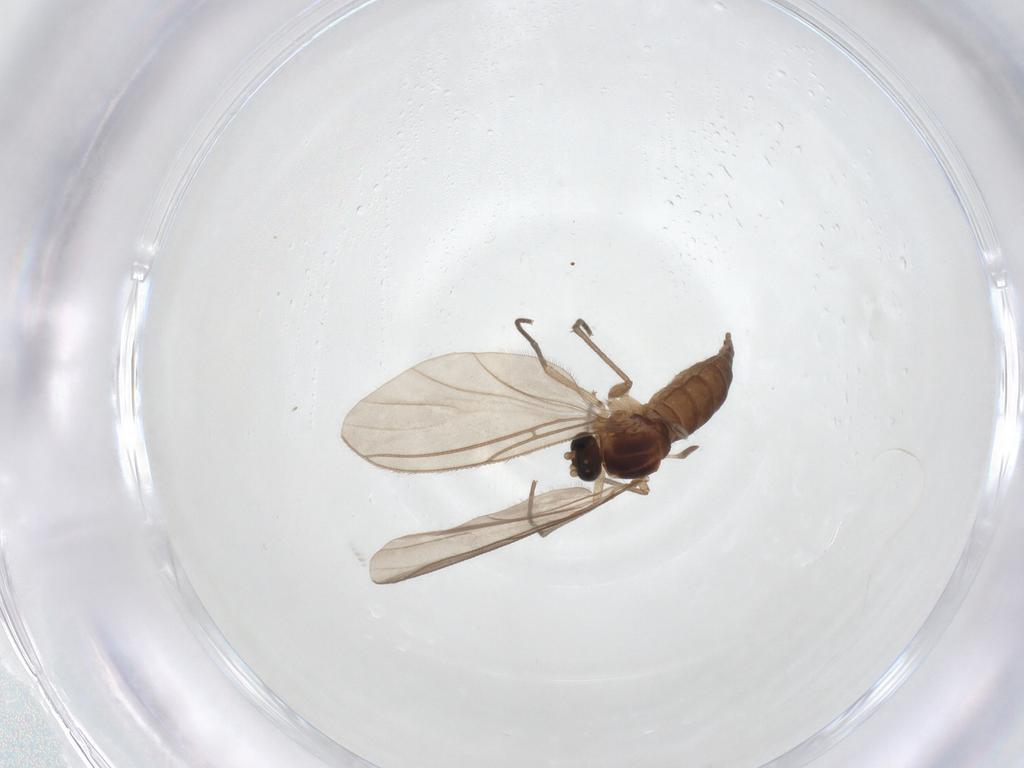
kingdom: Animalia
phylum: Arthropoda
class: Insecta
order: Diptera
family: Sciaridae
